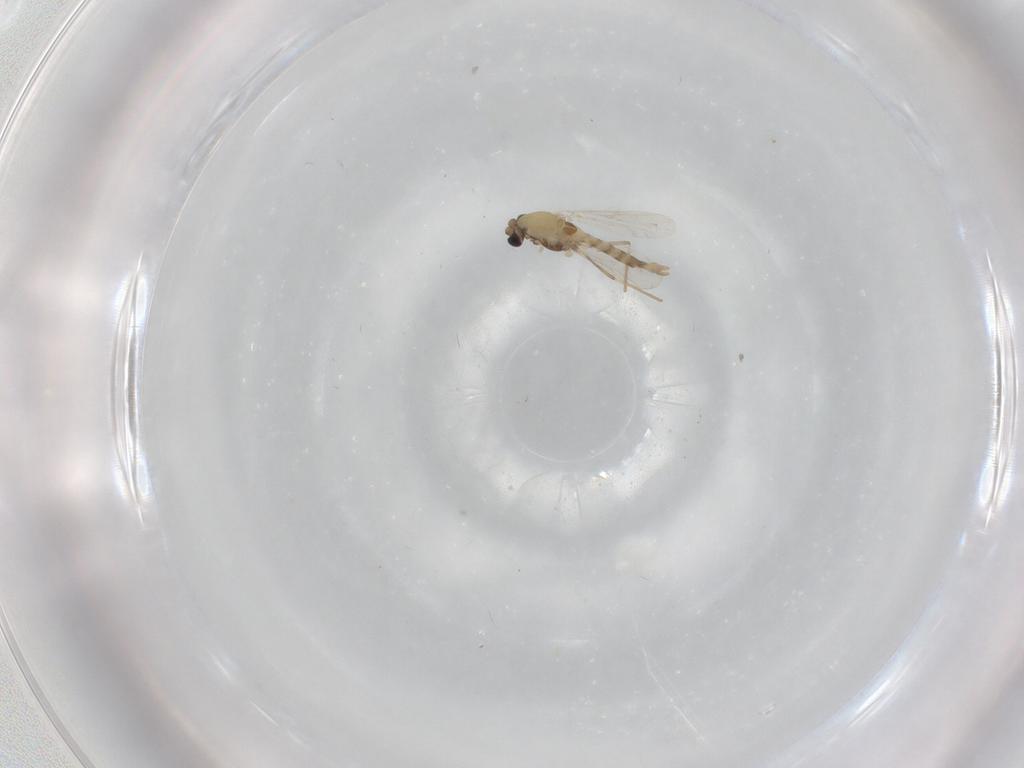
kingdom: Animalia
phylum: Arthropoda
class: Insecta
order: Diptera
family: Chironomidae
